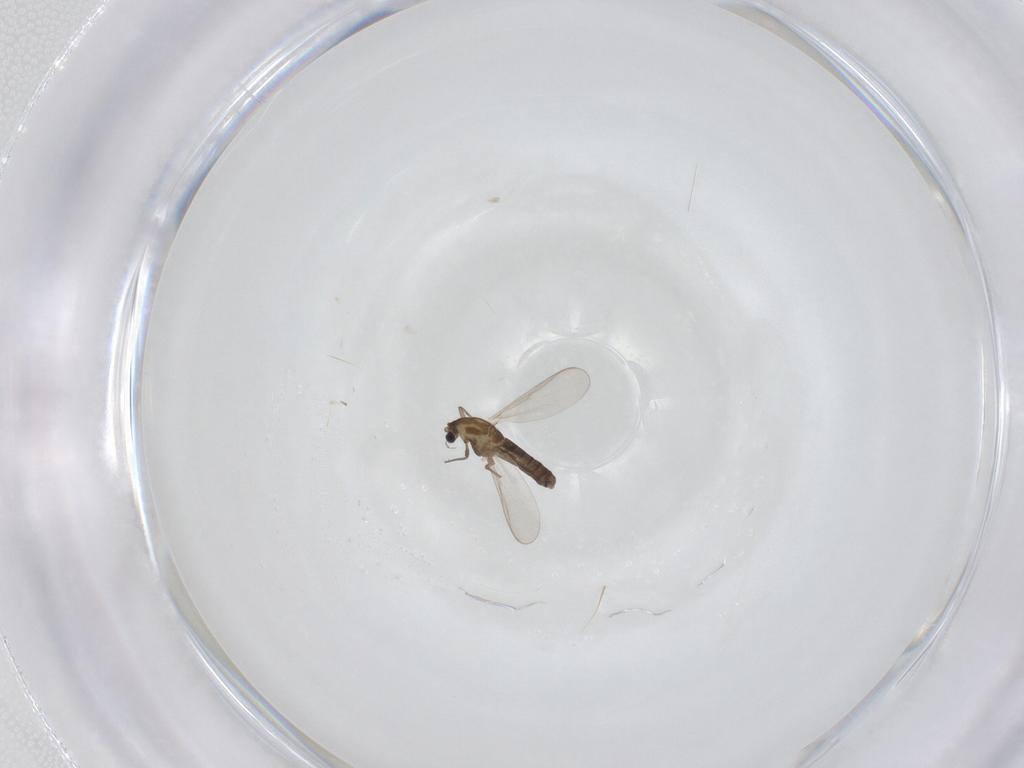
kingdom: Animalia
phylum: Arthropoda
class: Insecta
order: Diptera
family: Chironomidae
